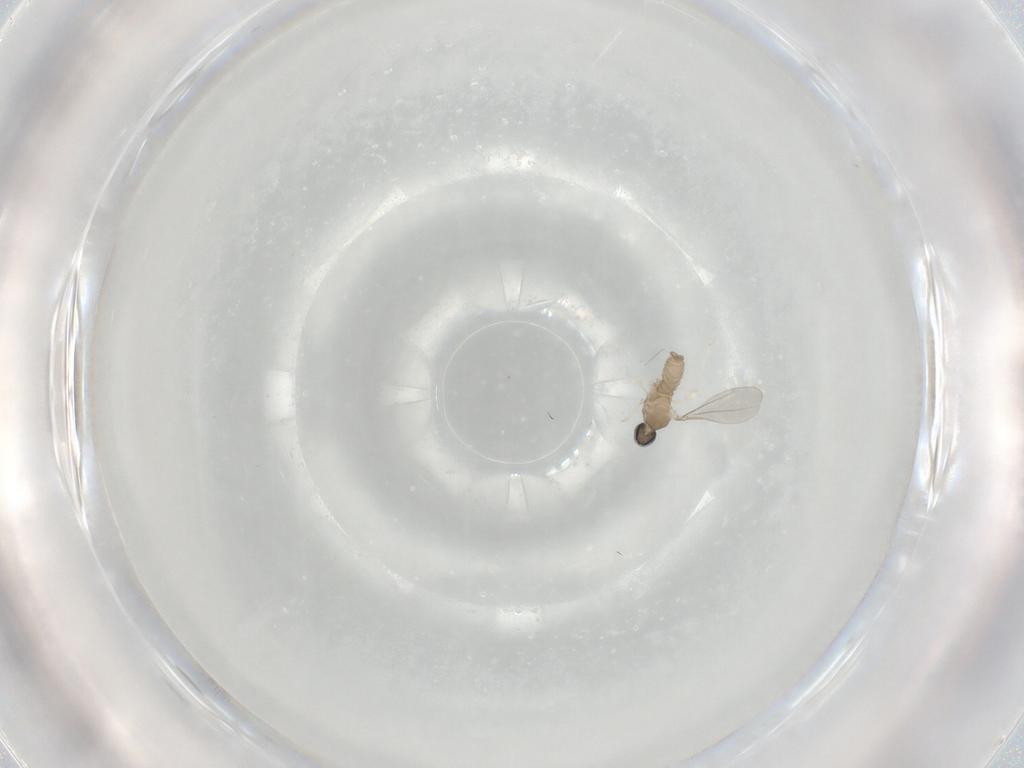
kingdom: Animalia
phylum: Arthropoda
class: Insecta
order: Diptera
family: Cecidomyiidae
